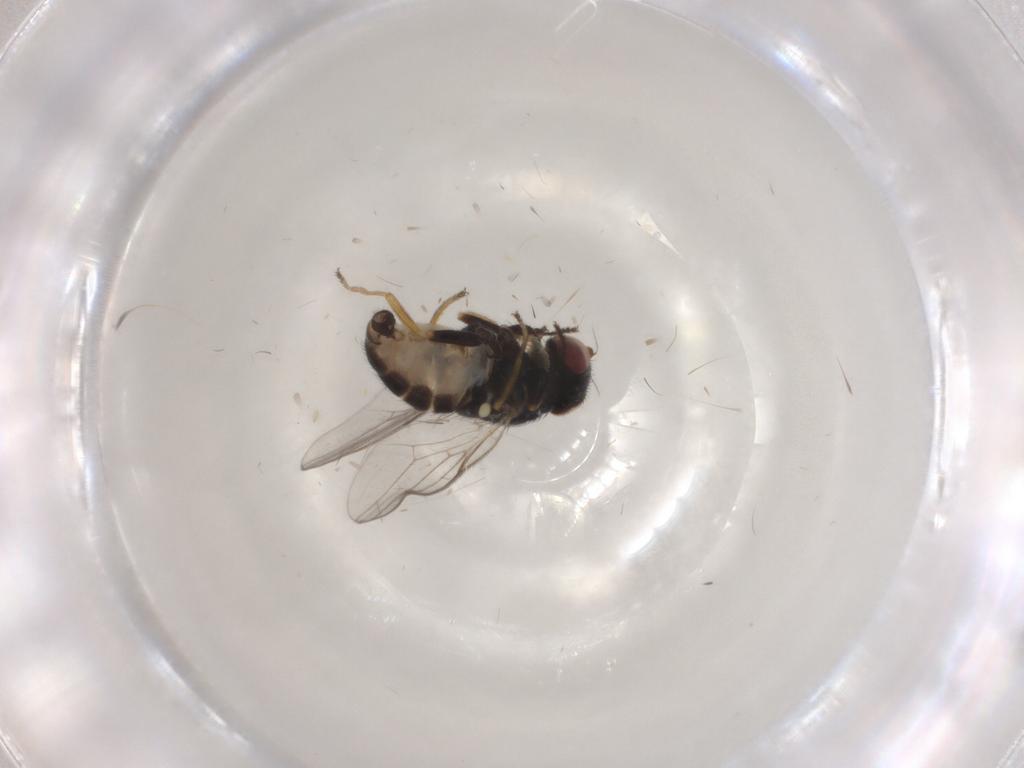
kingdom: Animalia
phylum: Arthropoda
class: Insecta
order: Diptera
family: Chloropidae
